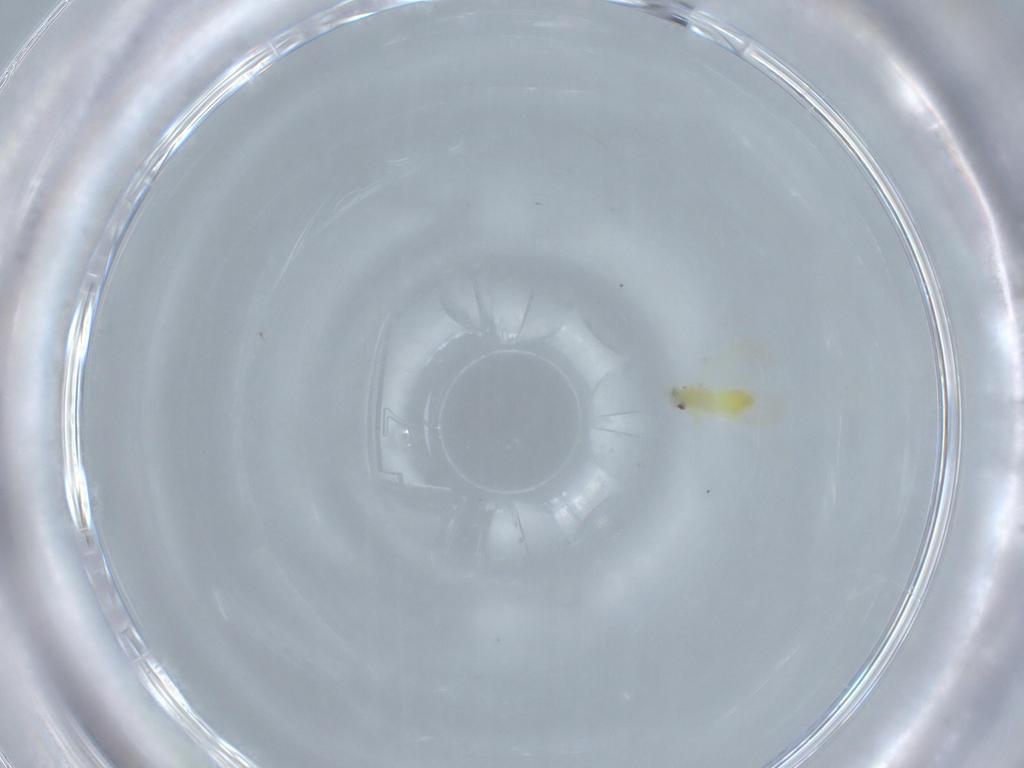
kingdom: Animalia
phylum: Arthropoda
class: Insecta
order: Hemiptera
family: Aleyrodidae
